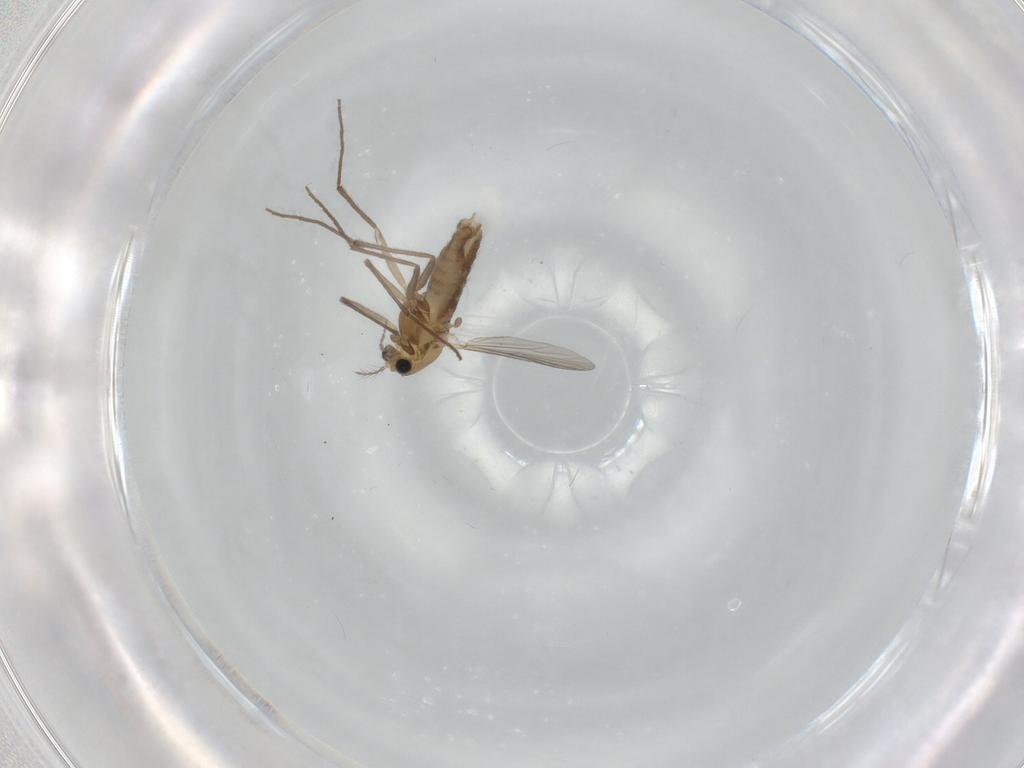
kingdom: Animalia
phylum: Arthropoda
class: Insecta
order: Diptera
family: Chironomidae
